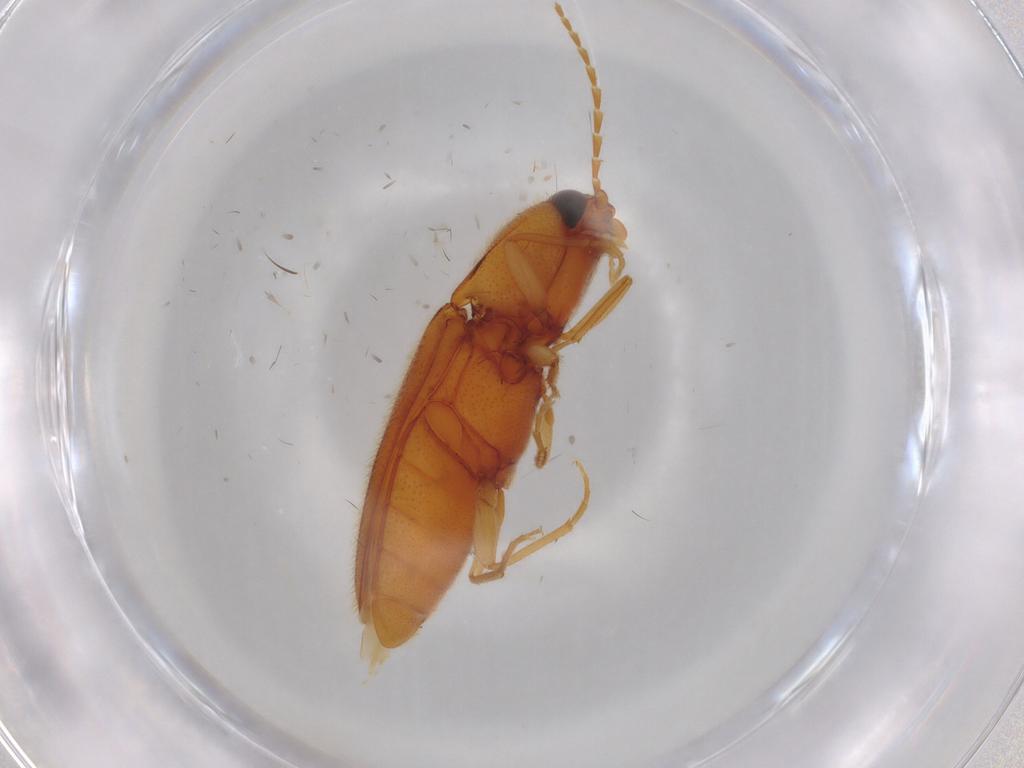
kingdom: Animalia
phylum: Arthropoda
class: Insecta
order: Coleoptera
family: Elateridae
